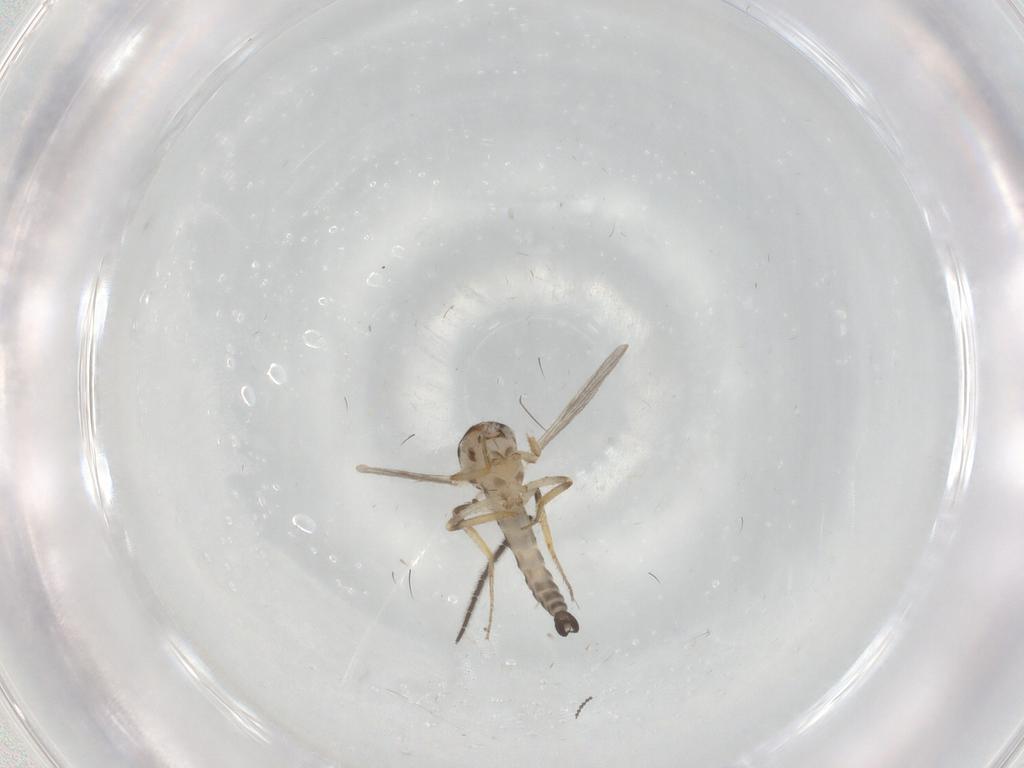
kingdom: Animalia
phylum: Arthropoda
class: Insecta
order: Diptera
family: Ceratopogonidae
